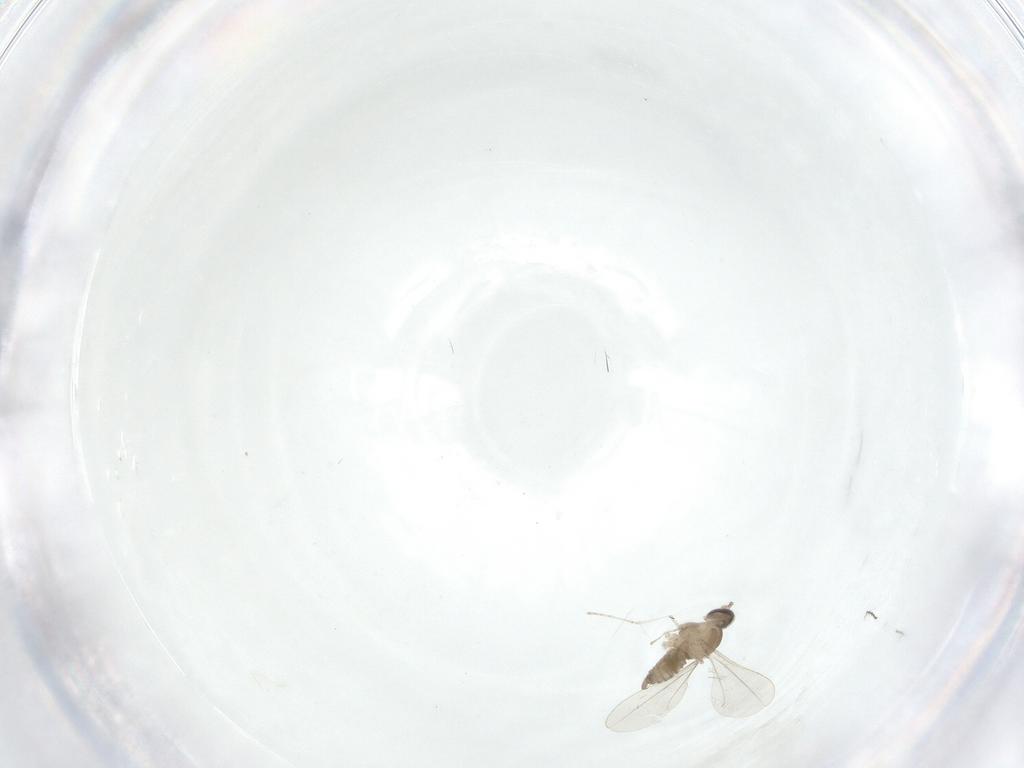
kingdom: Animalia
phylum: Arthropoda
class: Insecta
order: Diptera
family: Cecidomyiidae
